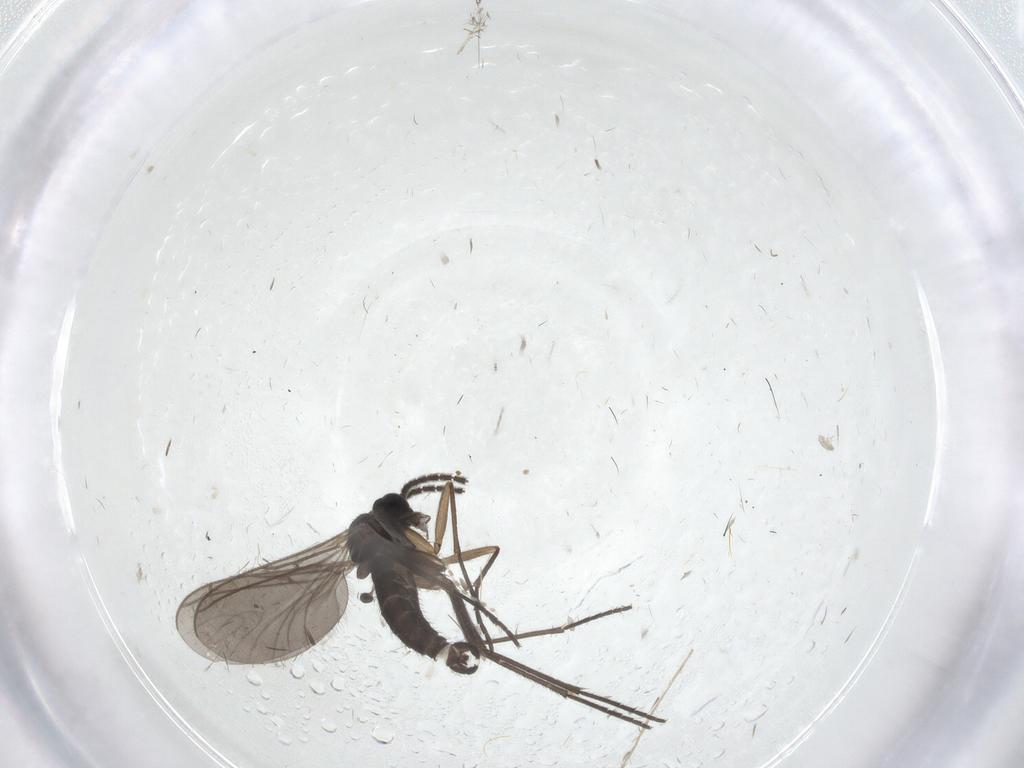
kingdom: Animalia
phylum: Arthropoda
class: Insecta
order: Diptera
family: Sciaridae
